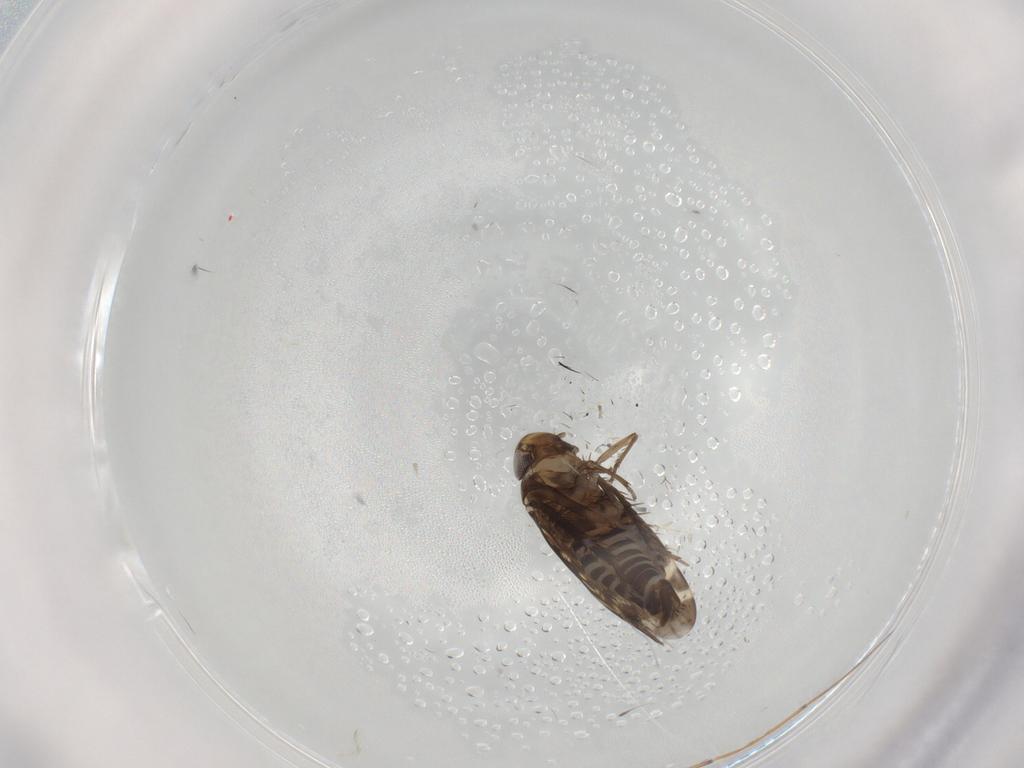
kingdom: Animalia
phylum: Arthropoda
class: Insecta
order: Hemiptera
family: Cicadellidae
